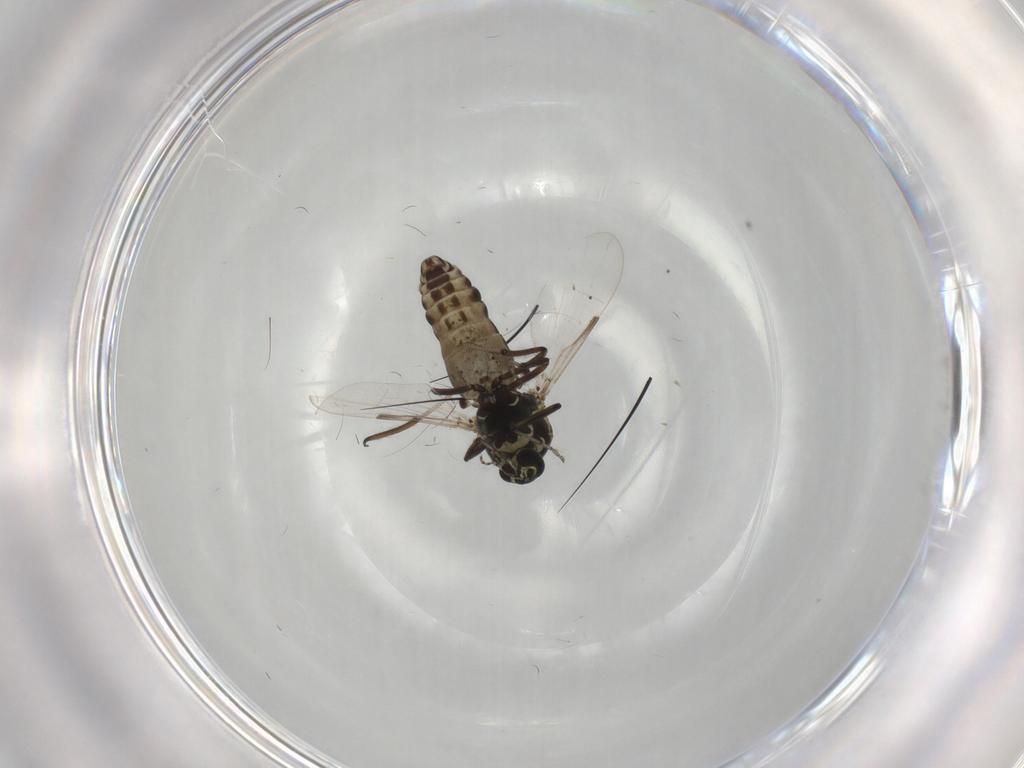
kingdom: Animalia
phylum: Arthropoda
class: Insecta
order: Diptera
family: Ceratopogonidae
